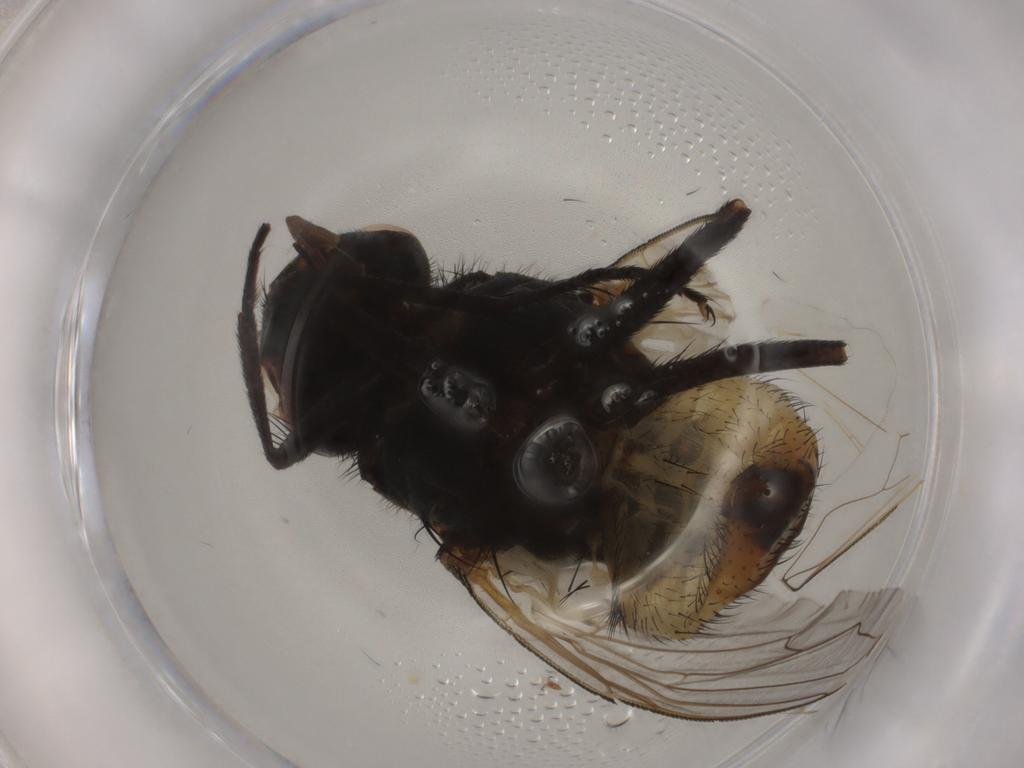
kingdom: Animalia
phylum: Arthropoda
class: Insecta
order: Diptera
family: Muscidae
